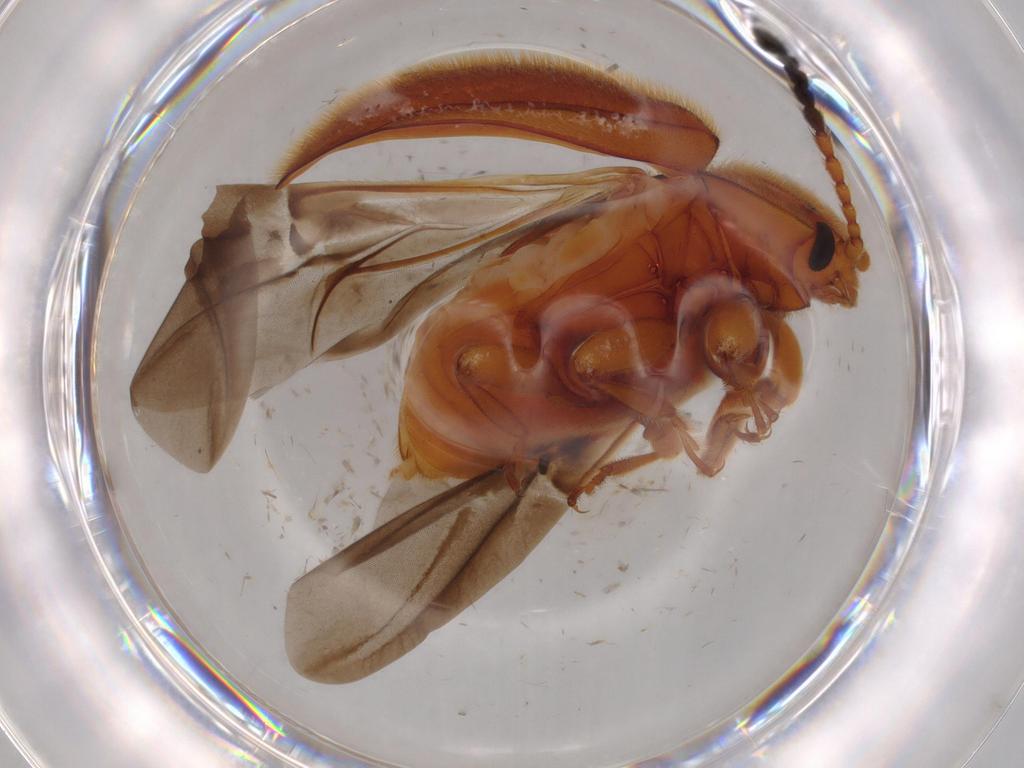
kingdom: Animalia
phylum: Arthropoda
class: Insecta
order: Coleoptera
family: Endomychidae
